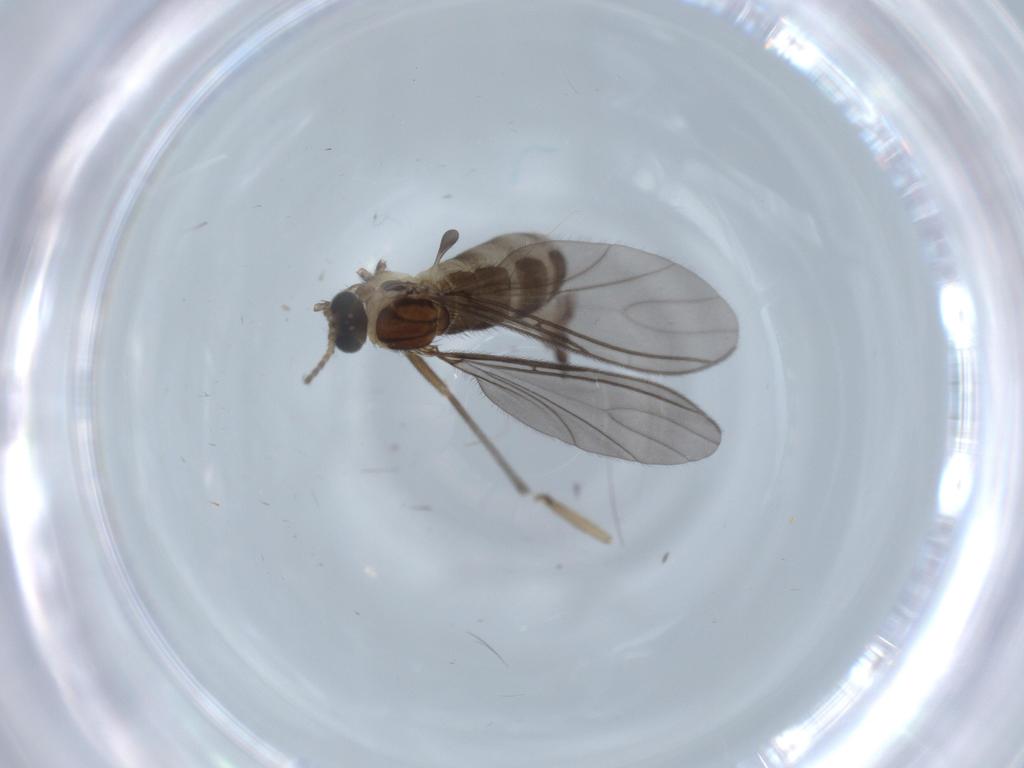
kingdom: Animalia
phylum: Arthropoda
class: Insecta
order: Diptera
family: Sciaridae
